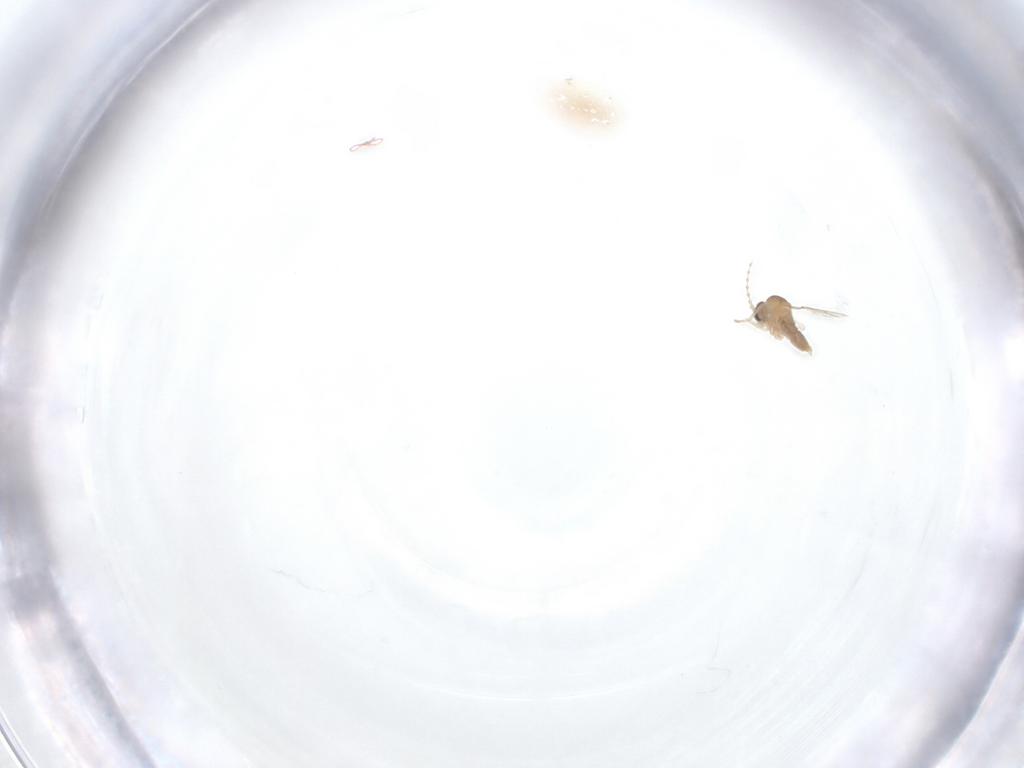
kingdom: Animalia
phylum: Arthropoda
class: Insecta
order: Diptera
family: Cecidomyiidae
